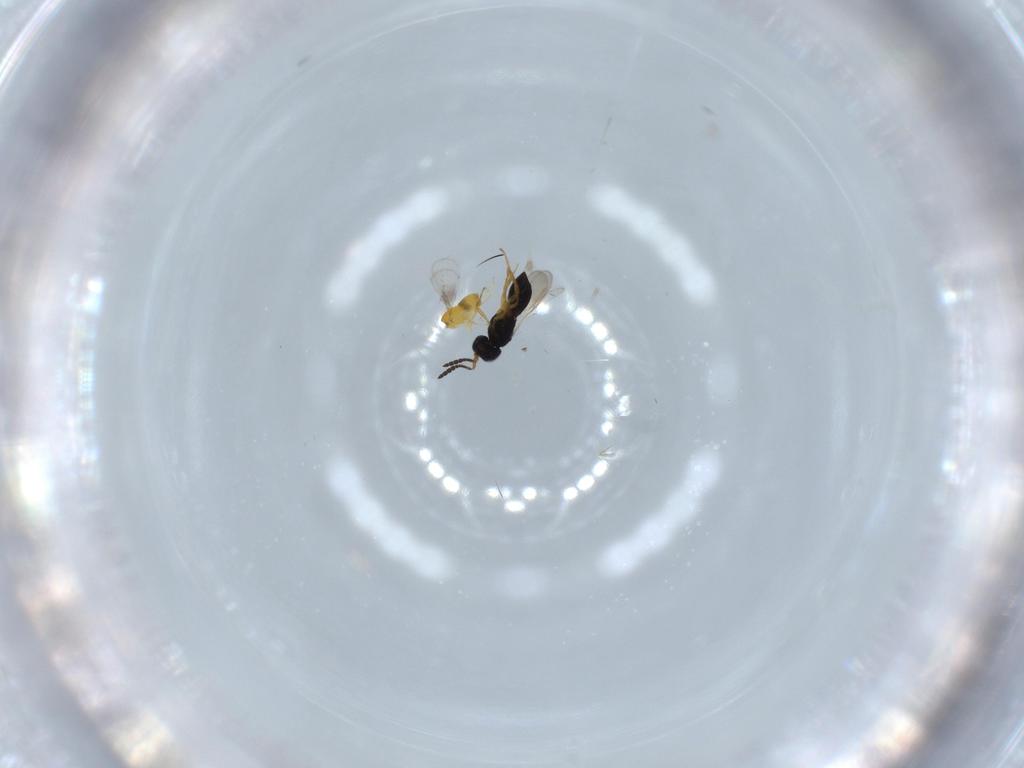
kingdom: Animalia
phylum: Arthropoda
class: Insecta
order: Hymenoptera
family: Scelionidae
